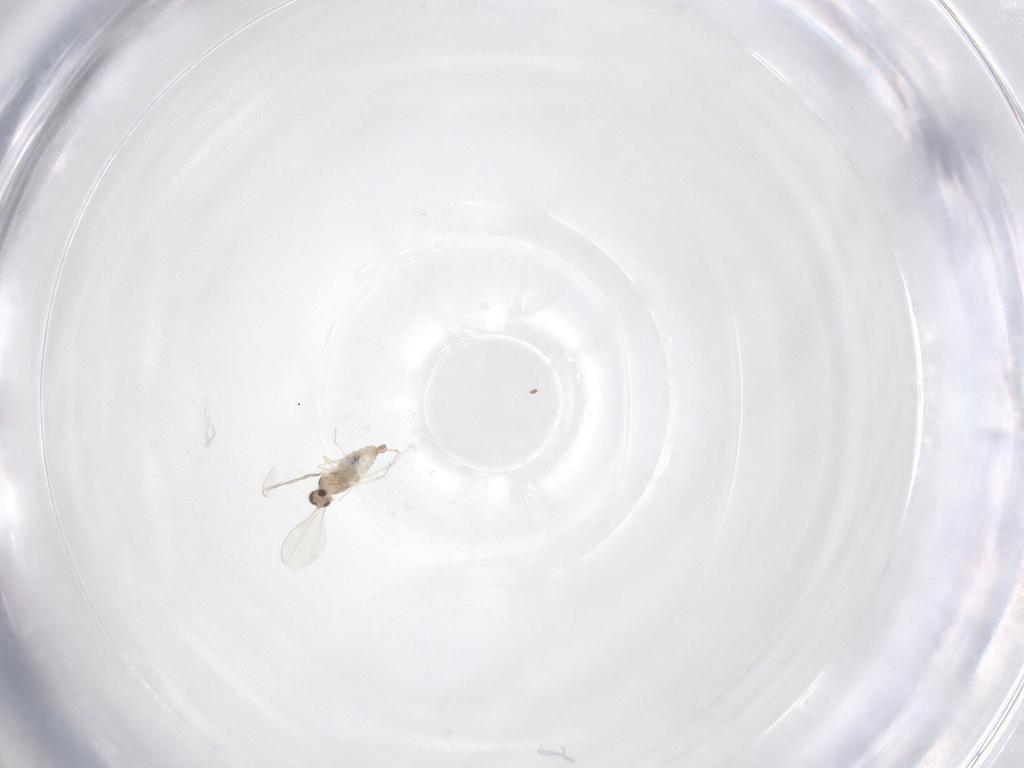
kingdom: Animalia
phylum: Arthropoda
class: Insecta
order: Diptera
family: Cecidomyiidae
